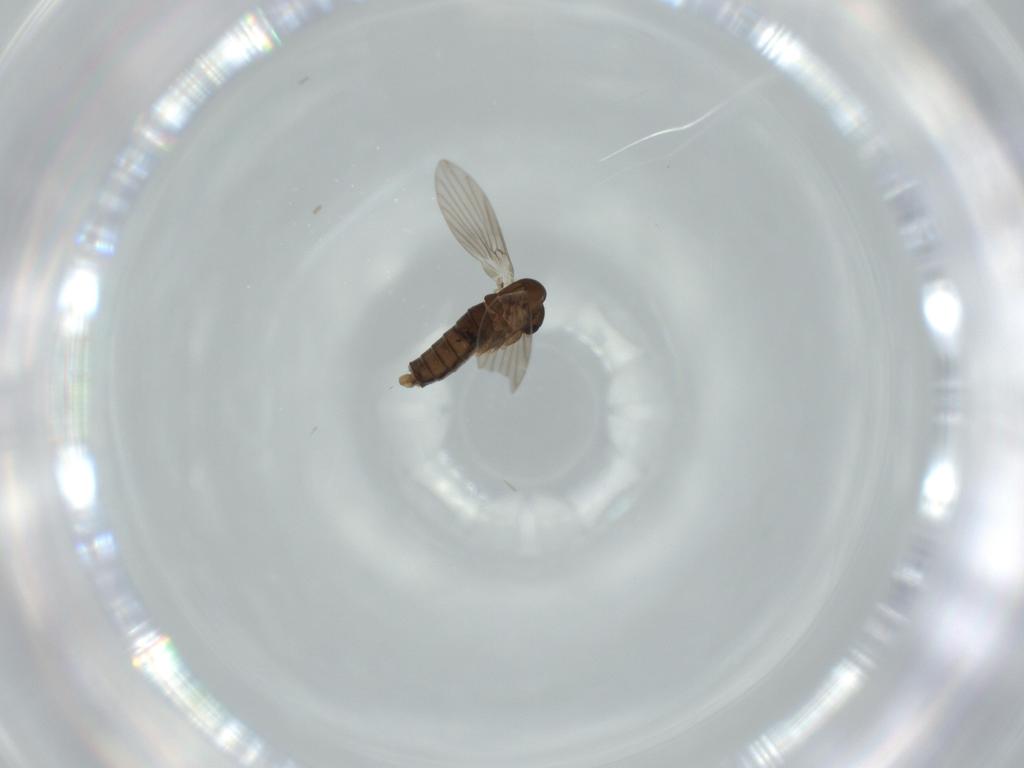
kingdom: Animalia
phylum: Arthropoda
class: Insecta
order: Diptera
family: Psychodidae
